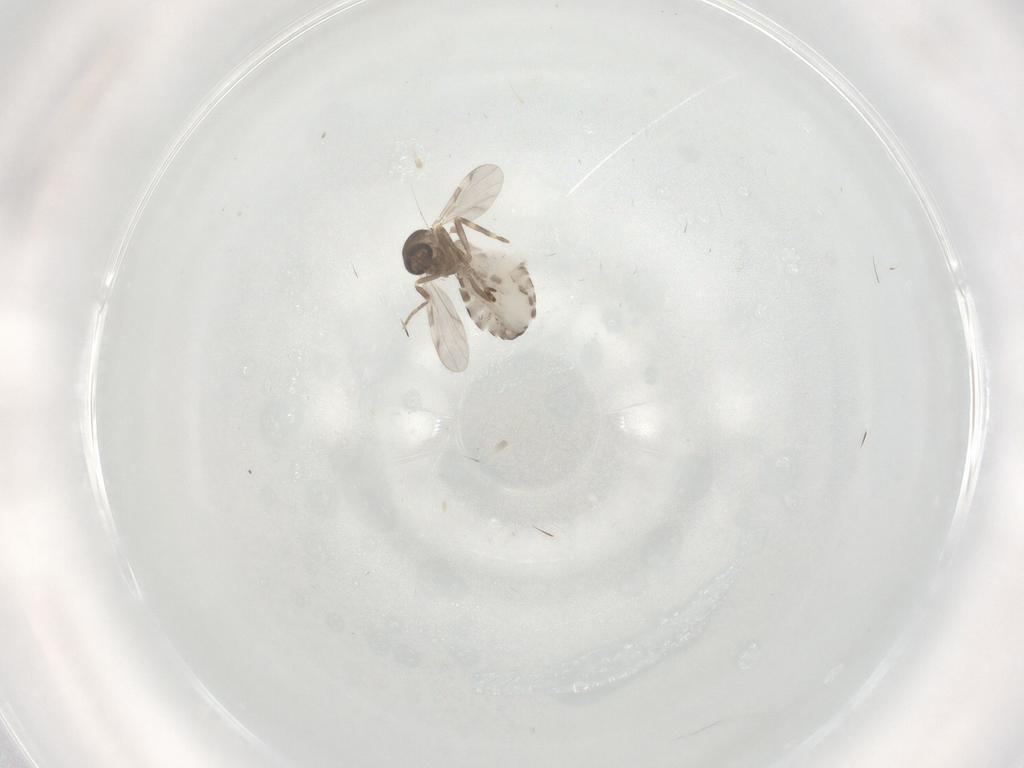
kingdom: Animalia
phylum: Arthropoda
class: Insecta
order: Diptera
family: Ceratopogonidae
